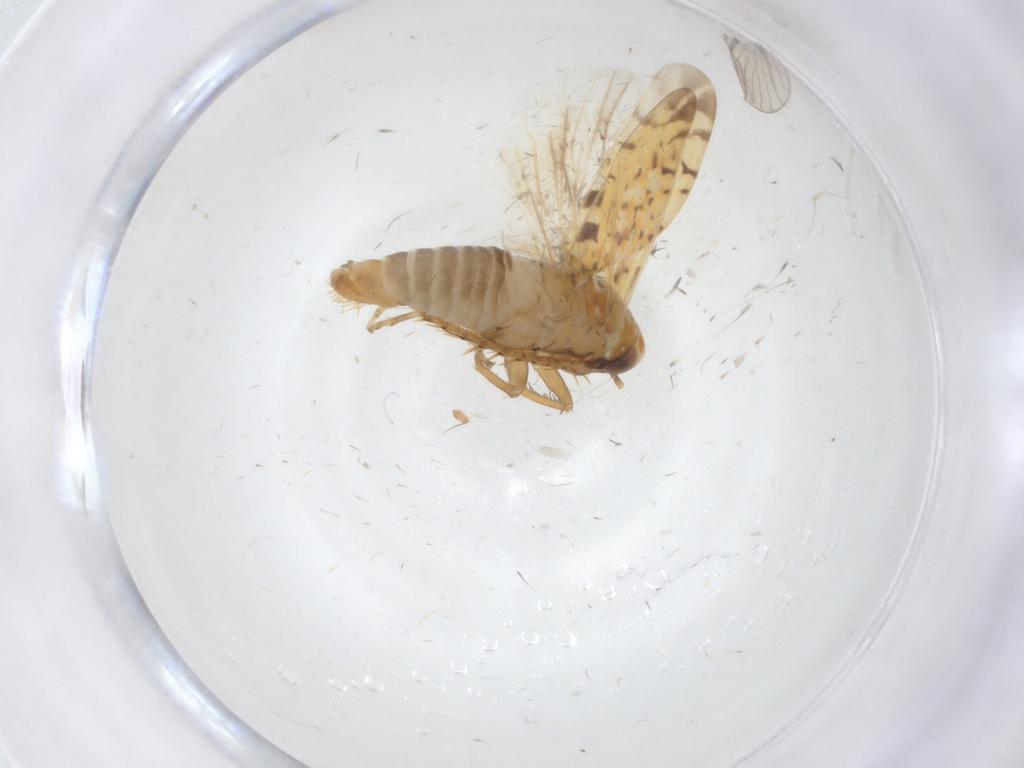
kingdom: Animalia
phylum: Arthropoda
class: Insecta
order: Hemiptera
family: Cicadellidae
